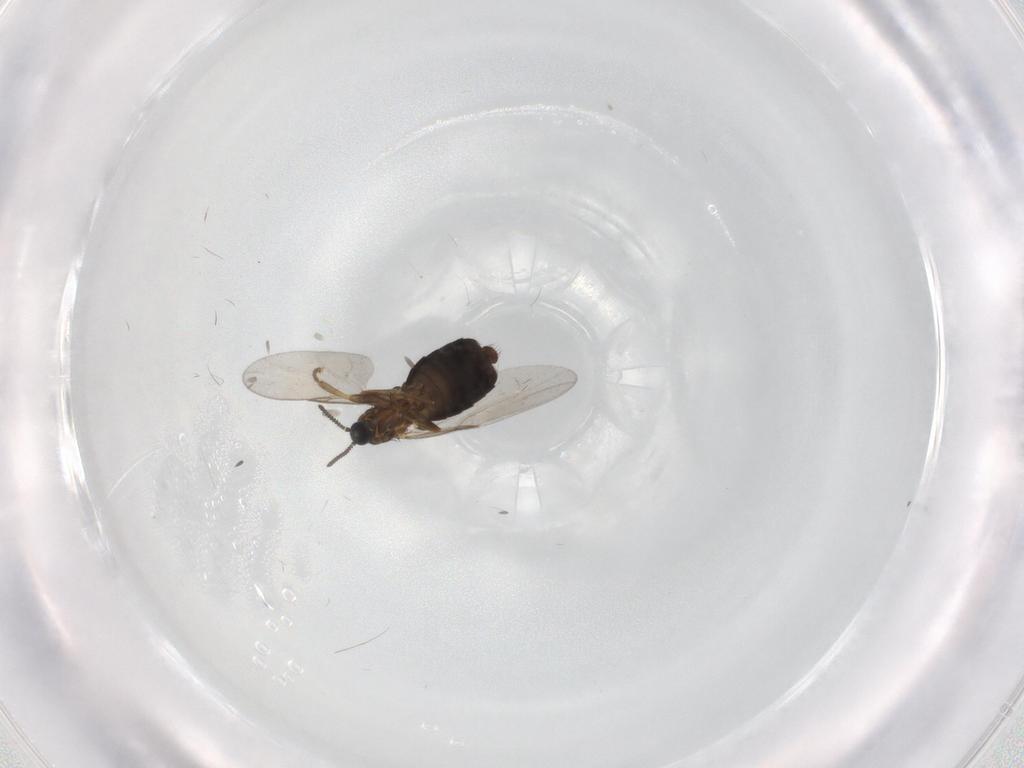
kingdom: Animalia
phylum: Arthropoda
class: Insecta
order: Diptera
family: Scatopsidae
